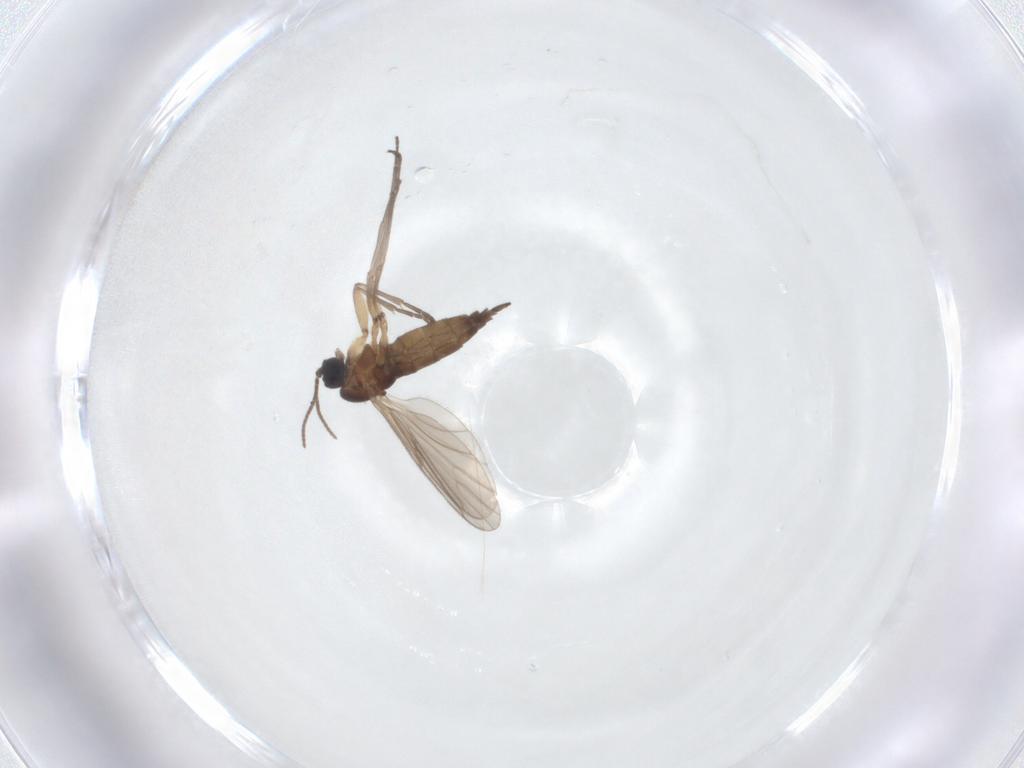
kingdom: Animalia
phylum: Arthropoda
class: Insecta
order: Diptera
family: Sciaridae
